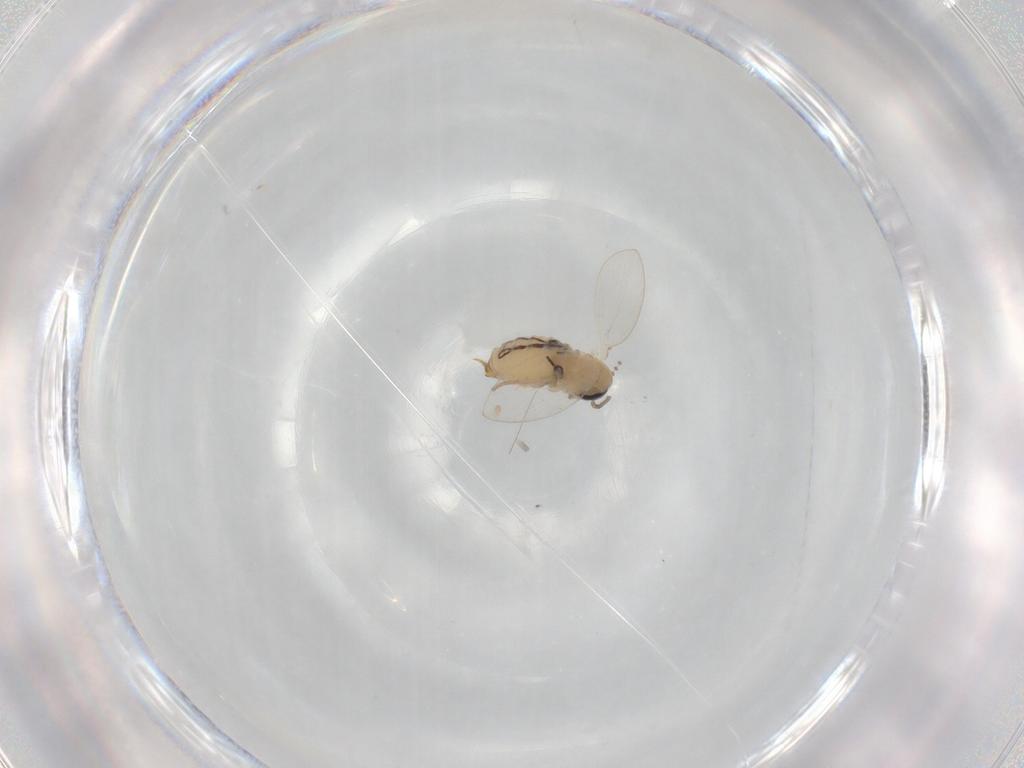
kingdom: Animalia
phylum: Arthropoda
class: Insecta
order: Diptera
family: Psychodidae
